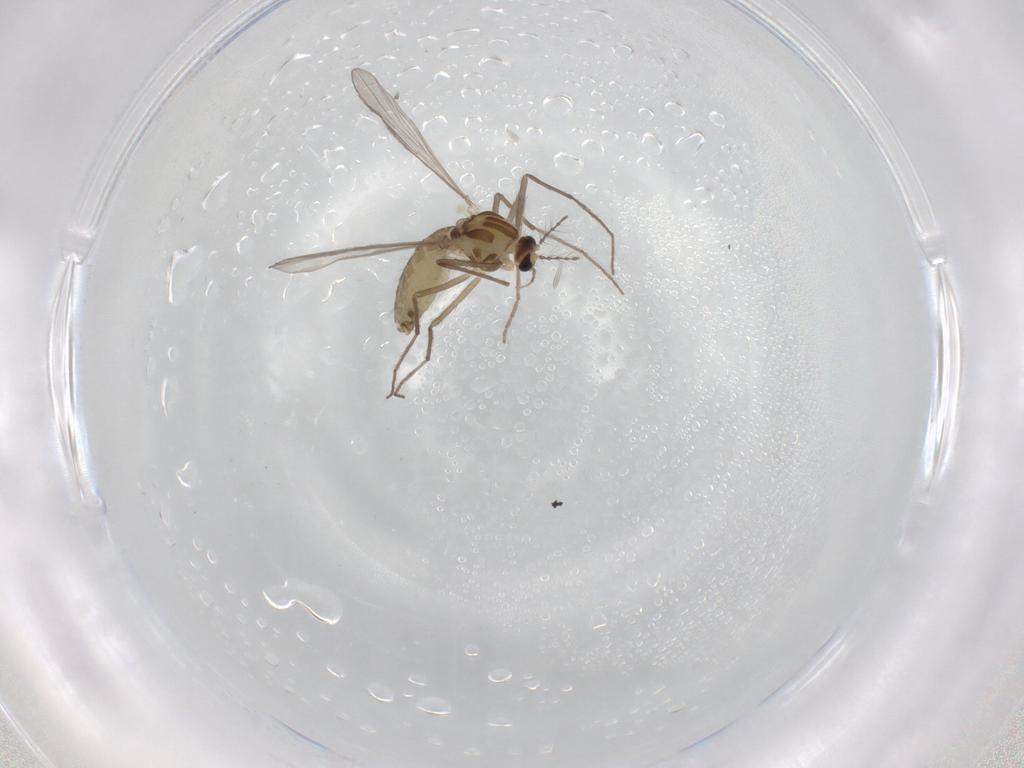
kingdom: Animalia
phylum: Arthropoda
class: Insecta
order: Diptera
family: Chironomidae
